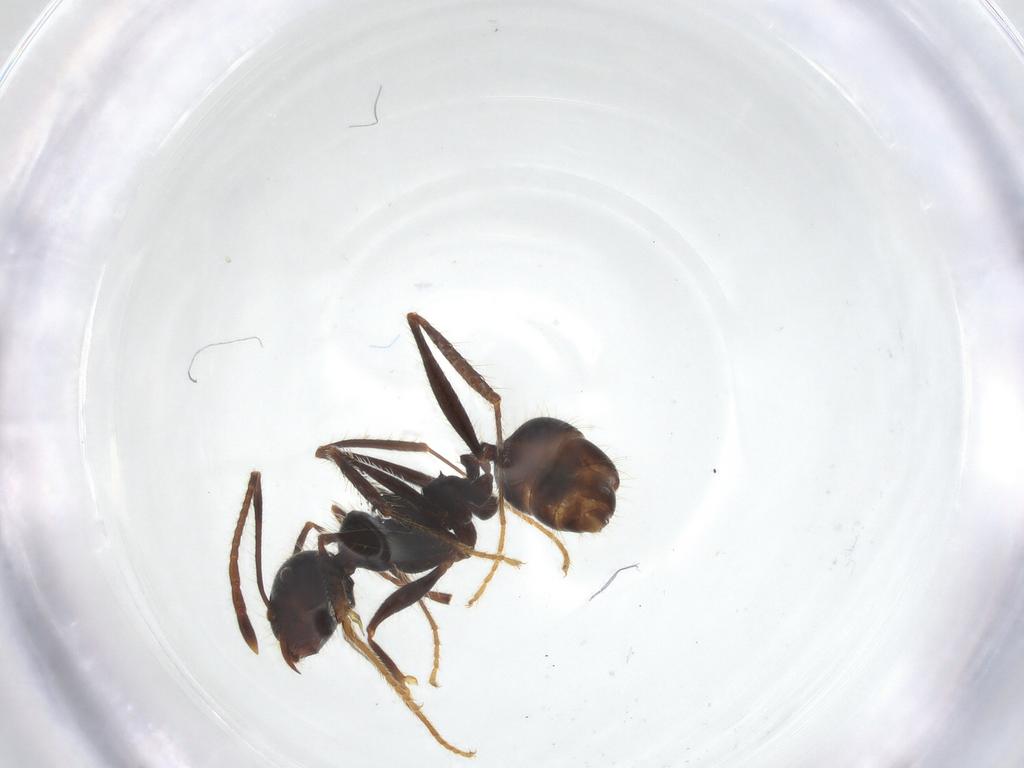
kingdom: Animalia
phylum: Arthropoda
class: Insecta
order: Hymenoptera
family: Formicidae
